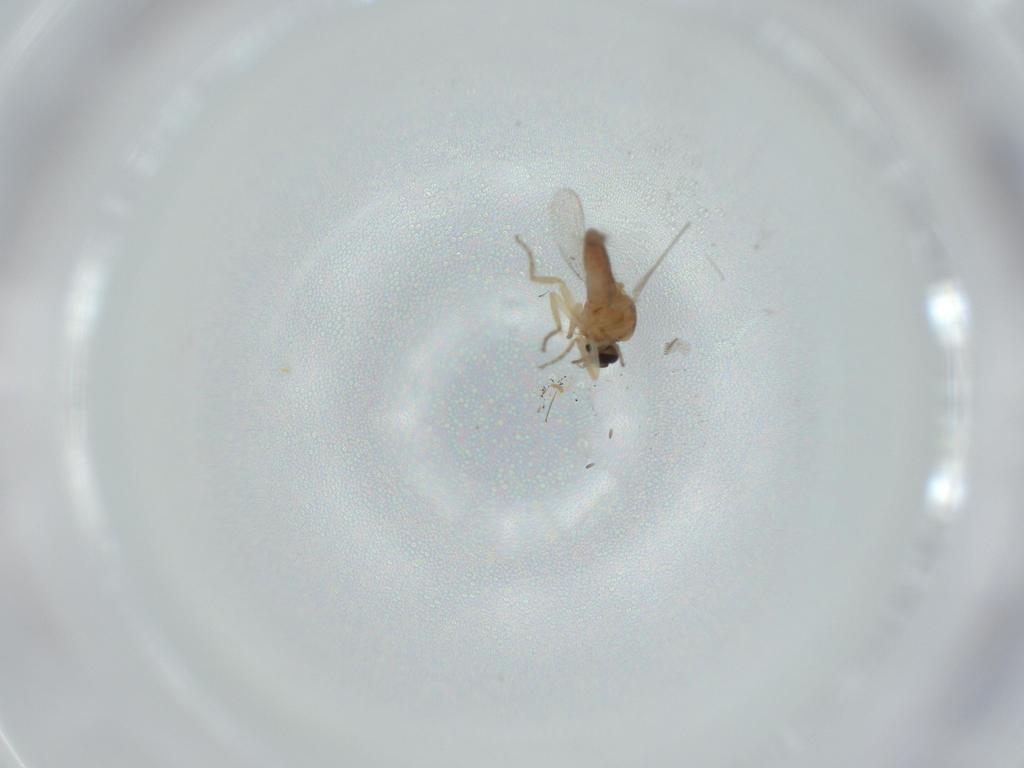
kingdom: Animalia
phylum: Arthropoda
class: Insecta
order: Diptera
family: Ceratopogonidae
